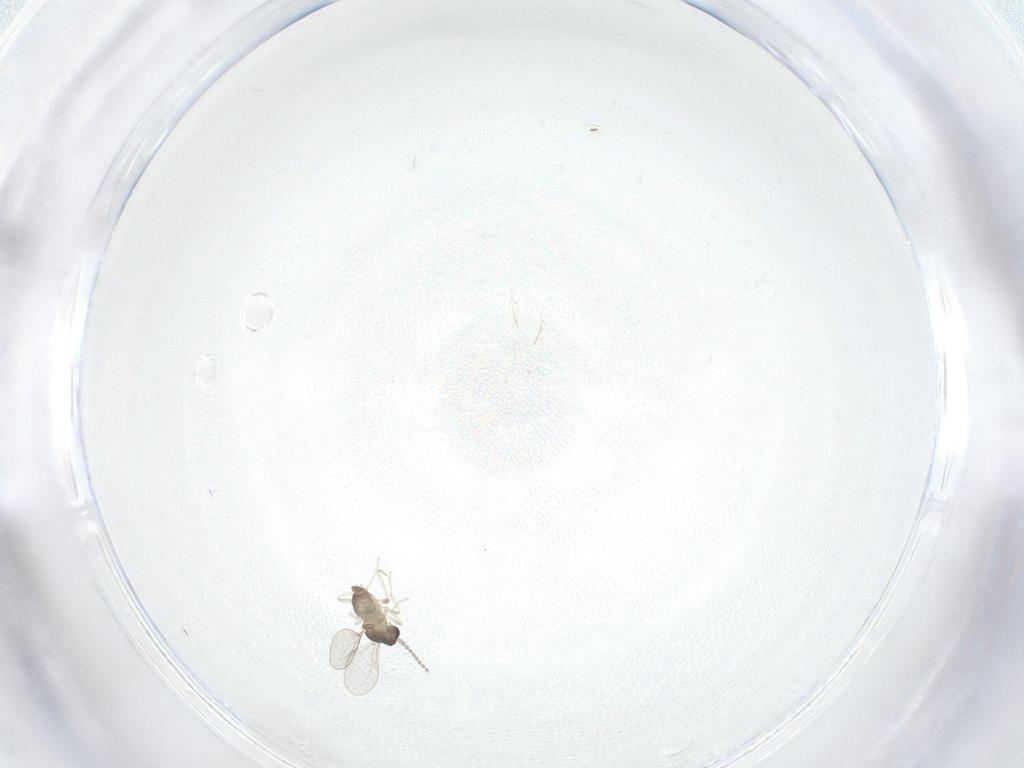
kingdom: Animalia
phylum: Arthropoda
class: Insecta
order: Diptera
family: Cecidomyiidae
